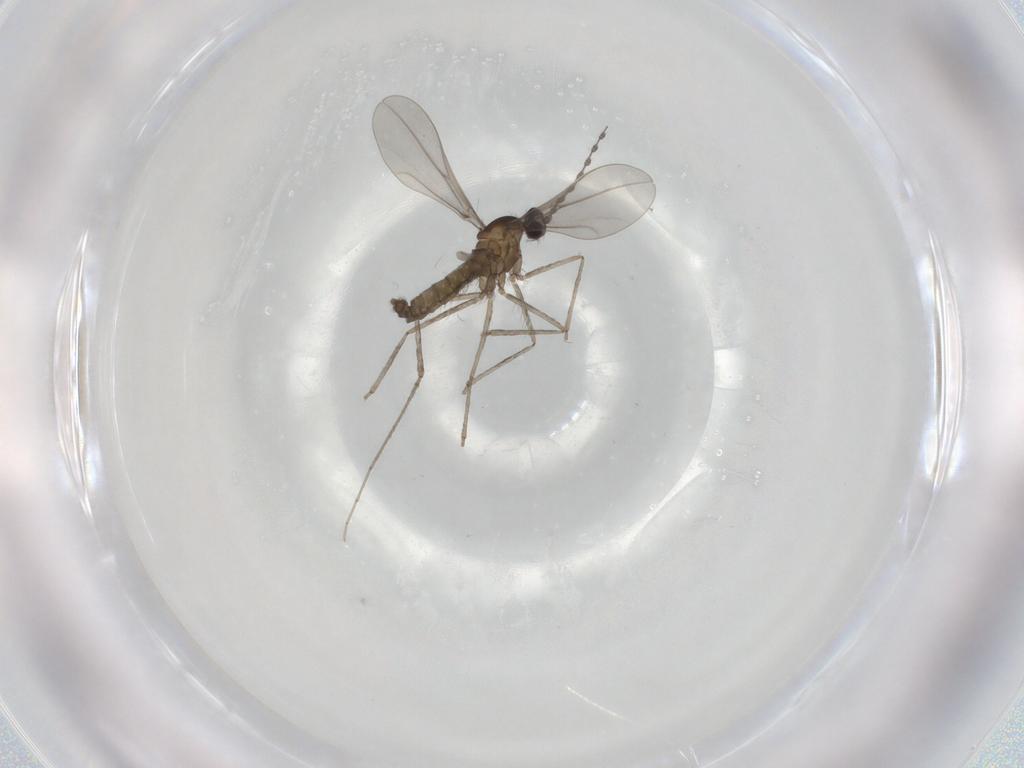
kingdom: Animalia
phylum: Arthropoda
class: Insecta
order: Diptera
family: Cecidomyiidae
